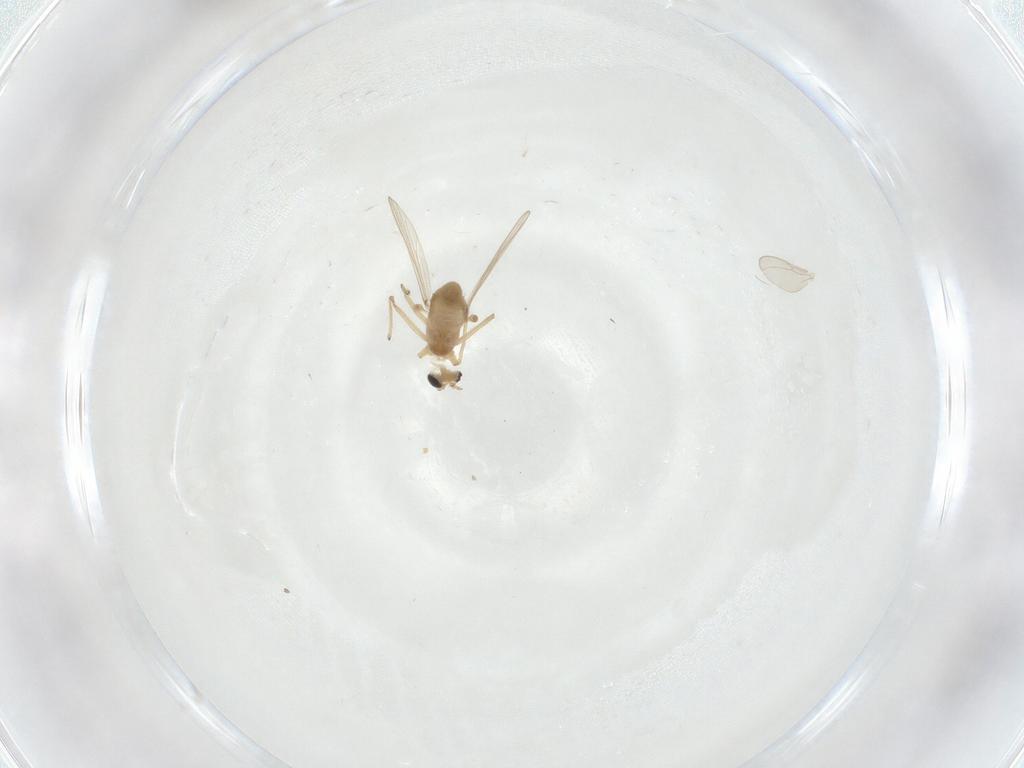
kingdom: Animalia
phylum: Arthropoda
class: Insecta
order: Diptera
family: Chironomidae
